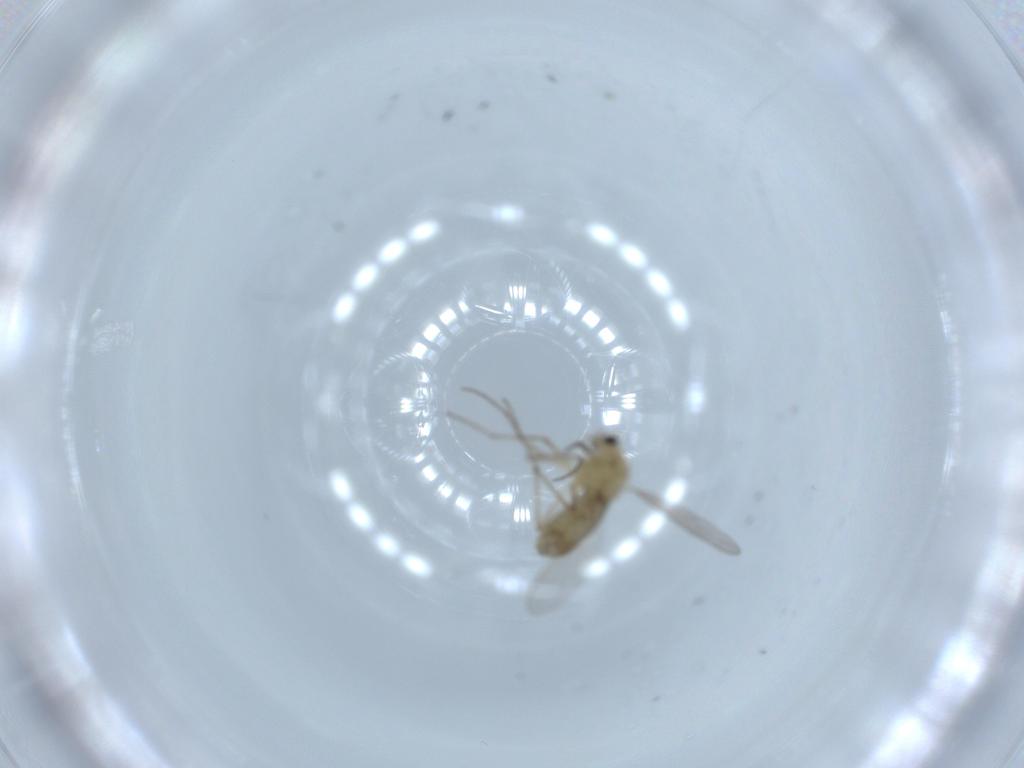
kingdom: Animalia
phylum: Arthropoda
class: Insecta
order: Diptera
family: Chironomidae
